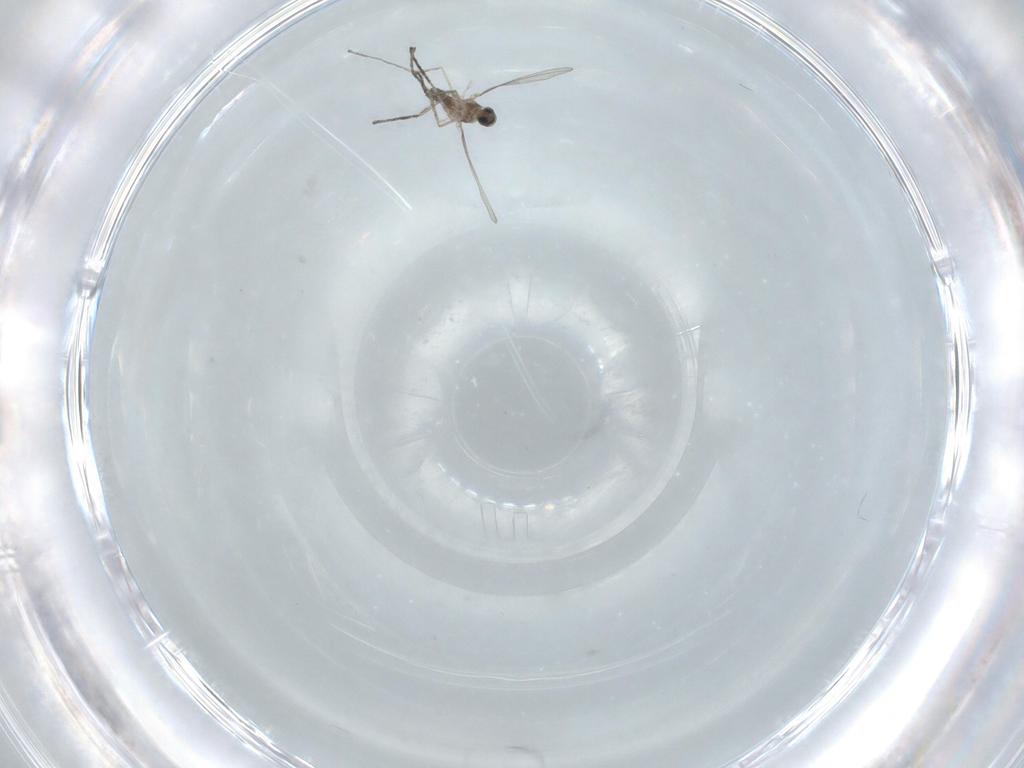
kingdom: Animalia
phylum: Arthropoda
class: Insecta
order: Diptera
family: Cecidomyiidae
